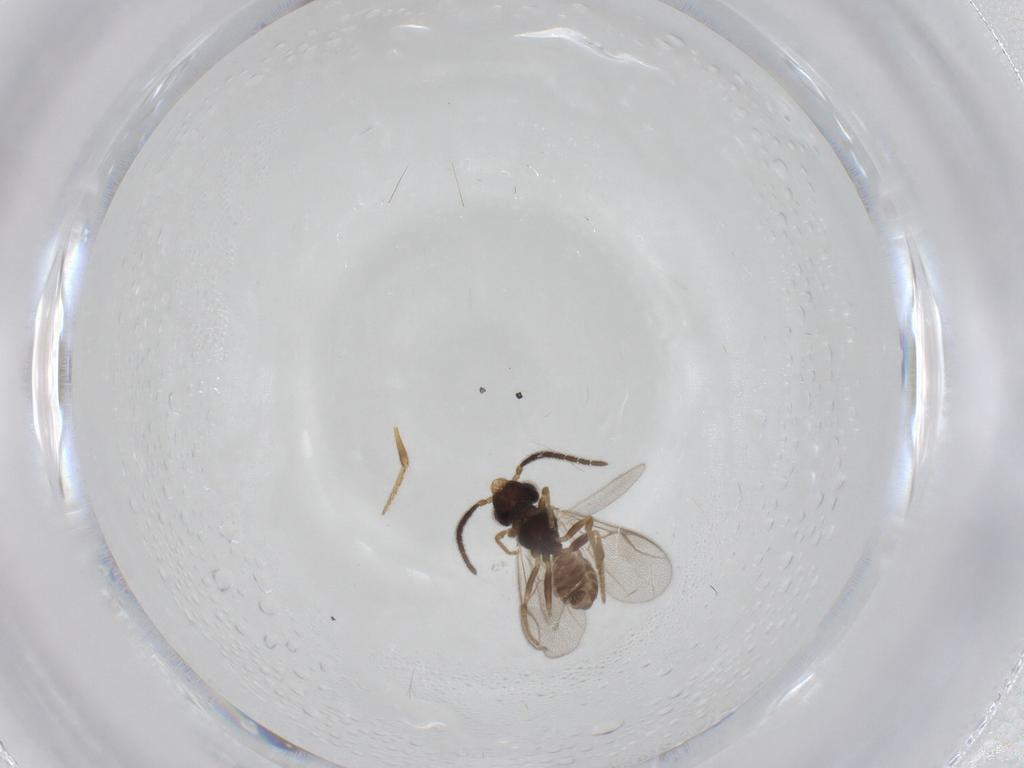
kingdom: Animalia
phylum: Arthropoda
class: Insecta
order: Hymenoptera
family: Dryinidae
